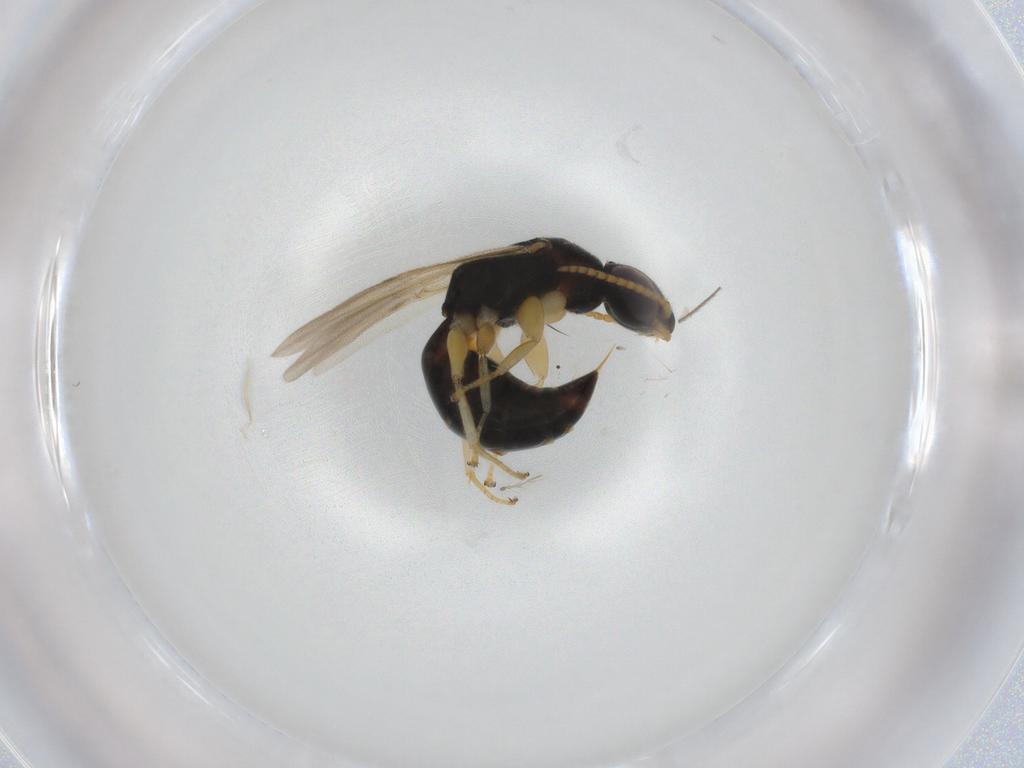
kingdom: Animalia
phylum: Arthropoda
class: Insecta
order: Hymenoptera
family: Bethylidae
